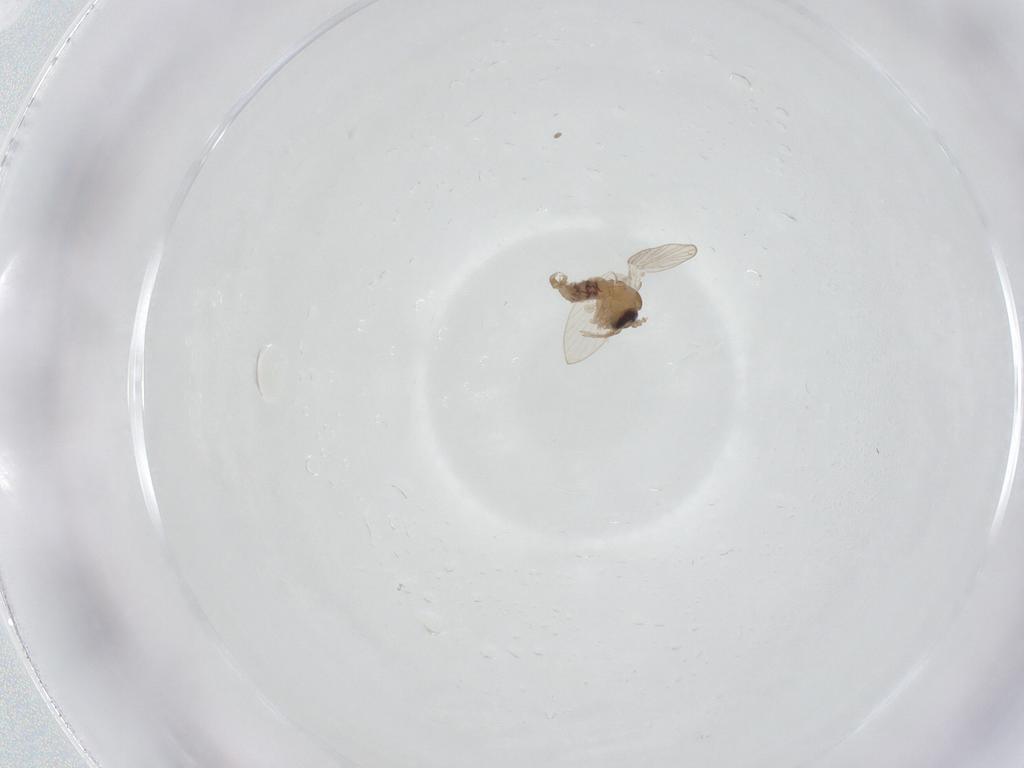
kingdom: Animalia
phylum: Arthropoda
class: Insecta
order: Diptera
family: Psychodidae
